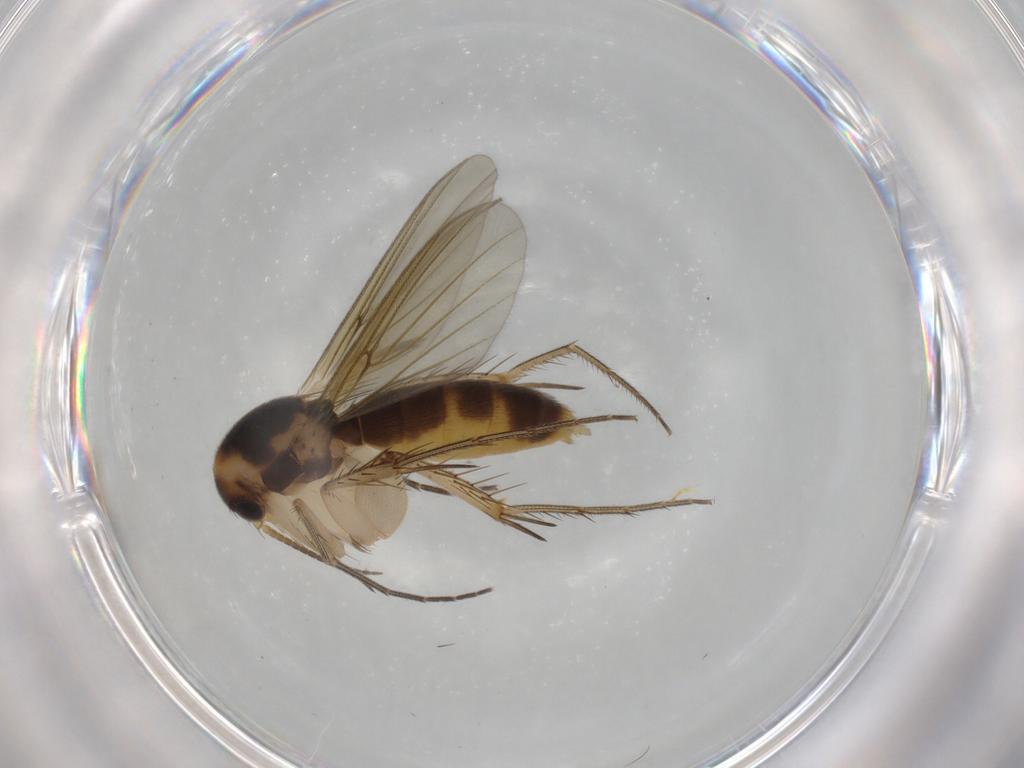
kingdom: Animalia
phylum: Arthropoda
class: Insecta
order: Diptera
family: Mycetophilidae
